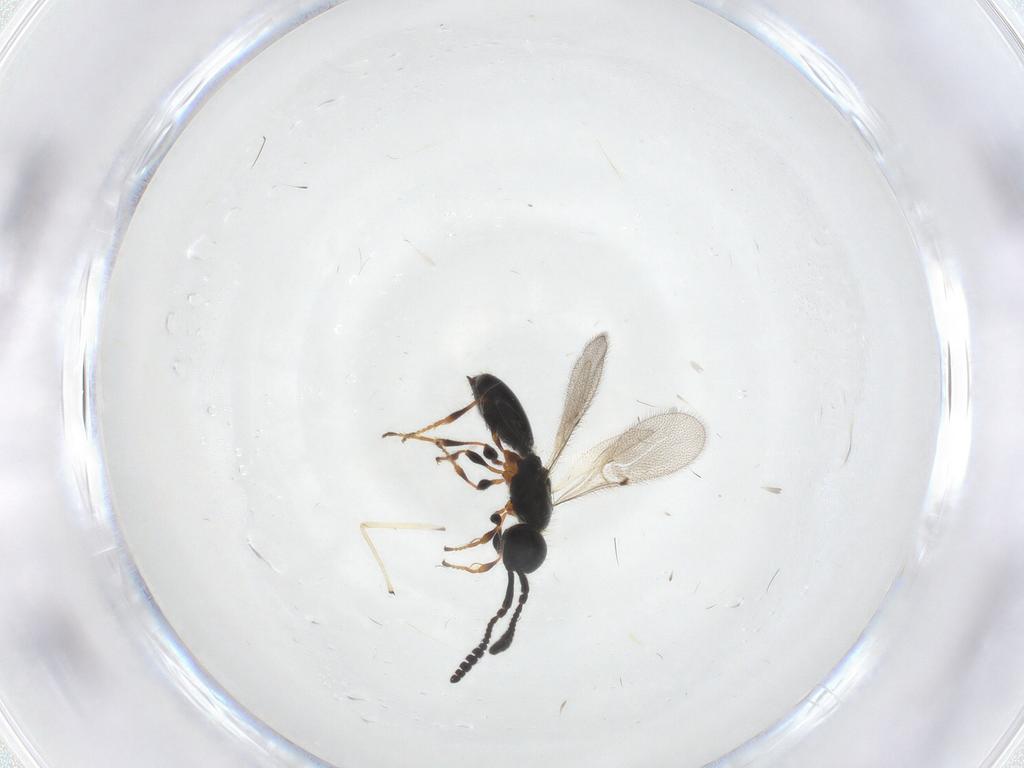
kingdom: Animalia
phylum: Arthropoda
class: Insecta
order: Hymenoptera
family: Diapriidae
